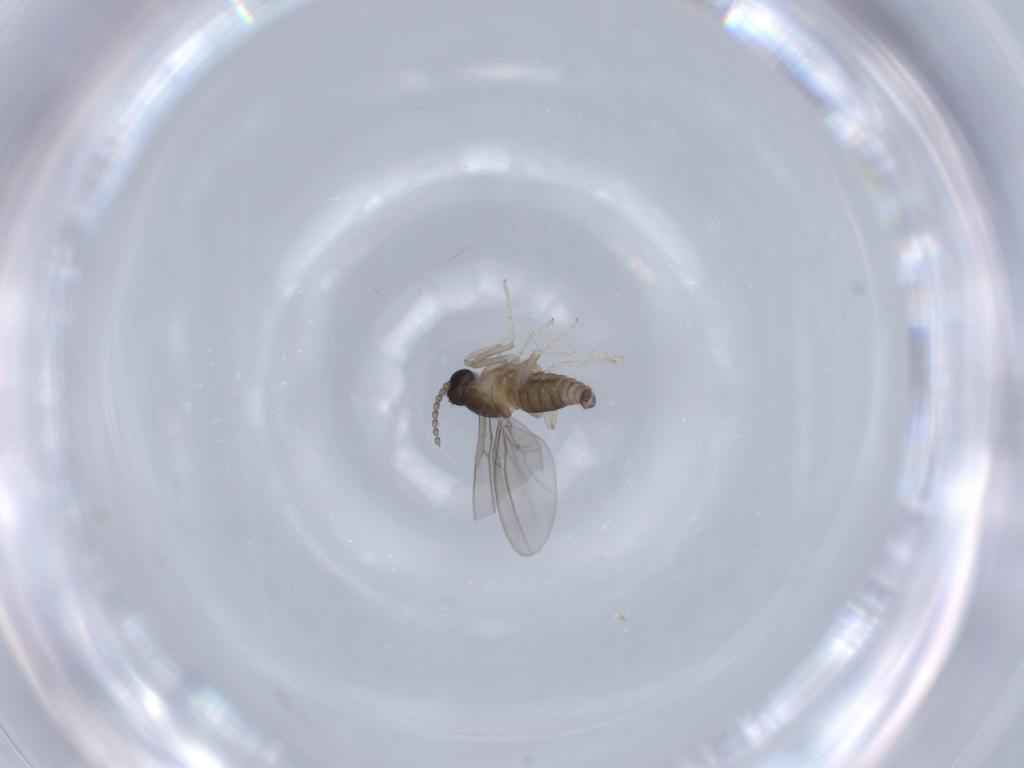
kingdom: Animalia
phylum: Arthropoda
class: Insecta
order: Diptera
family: Cecidomyiidae
